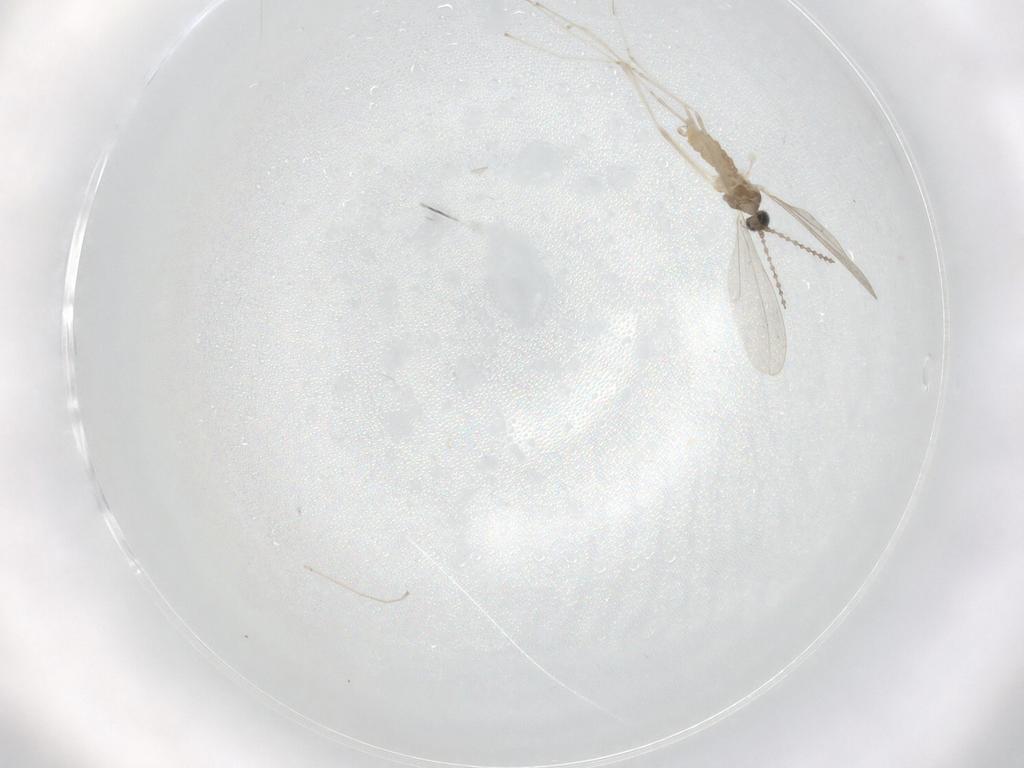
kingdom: Animalia
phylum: Arthropoda
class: Insecta
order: Diptera
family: Cecidomyiidae
